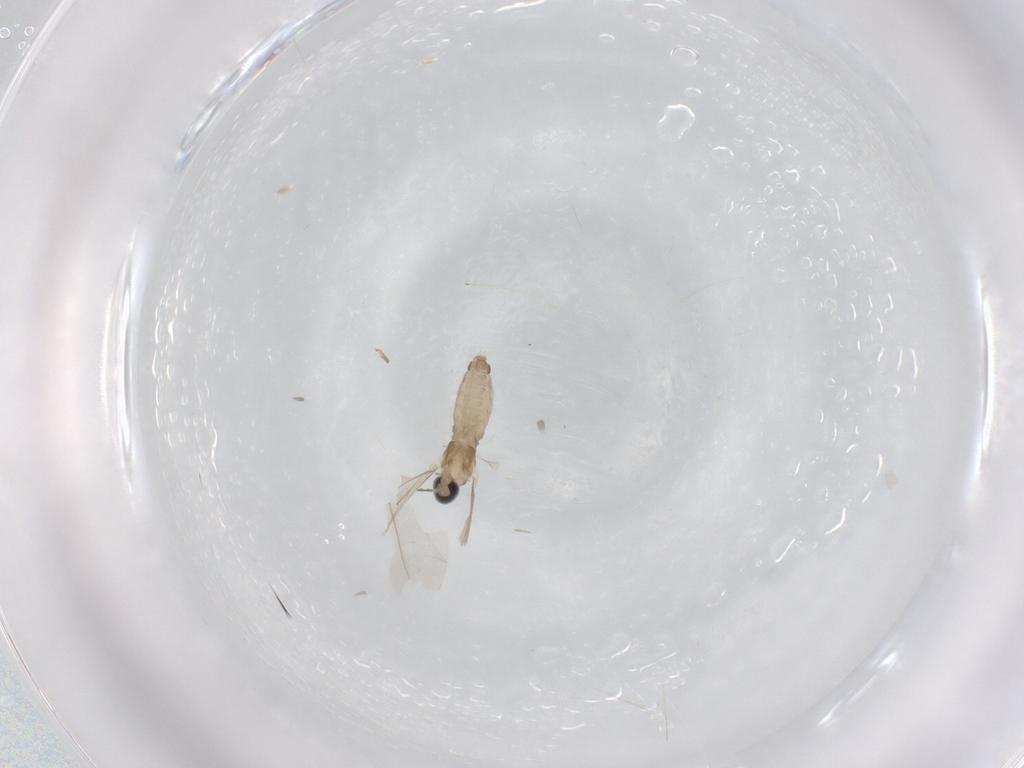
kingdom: Animalia
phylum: Arthropoda
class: Insecta
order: Diptera
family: Cecidomyiidae
